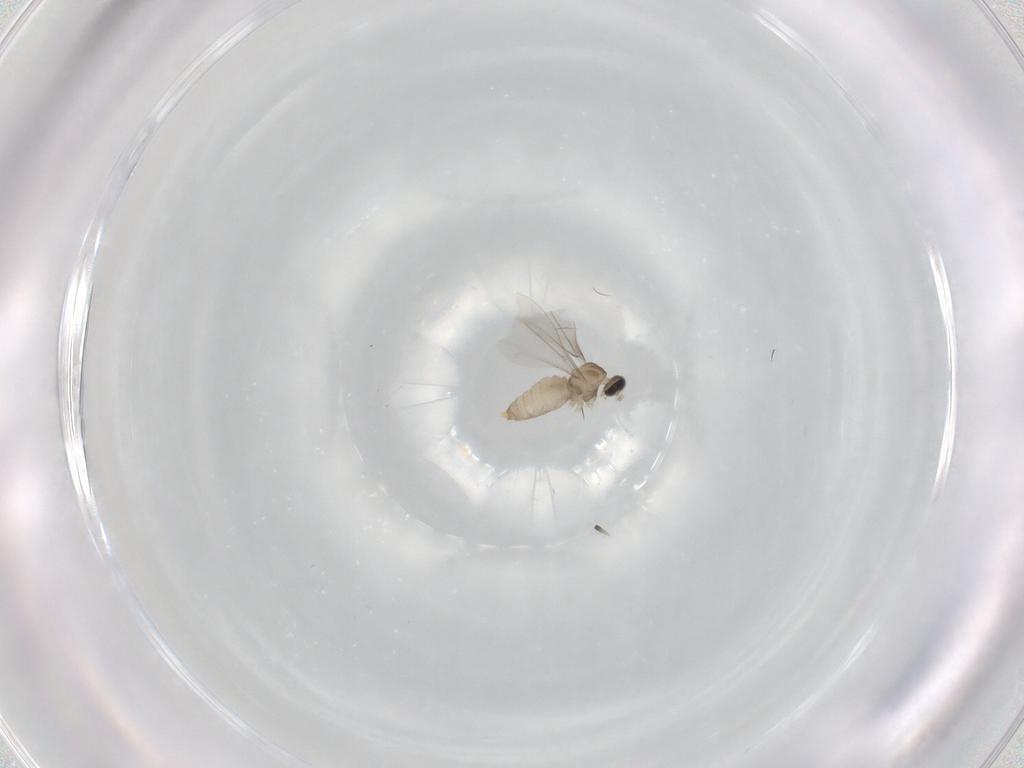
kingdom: Animalia
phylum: Arthropoda
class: Insecta
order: Diptera
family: Cecidomyiidae
